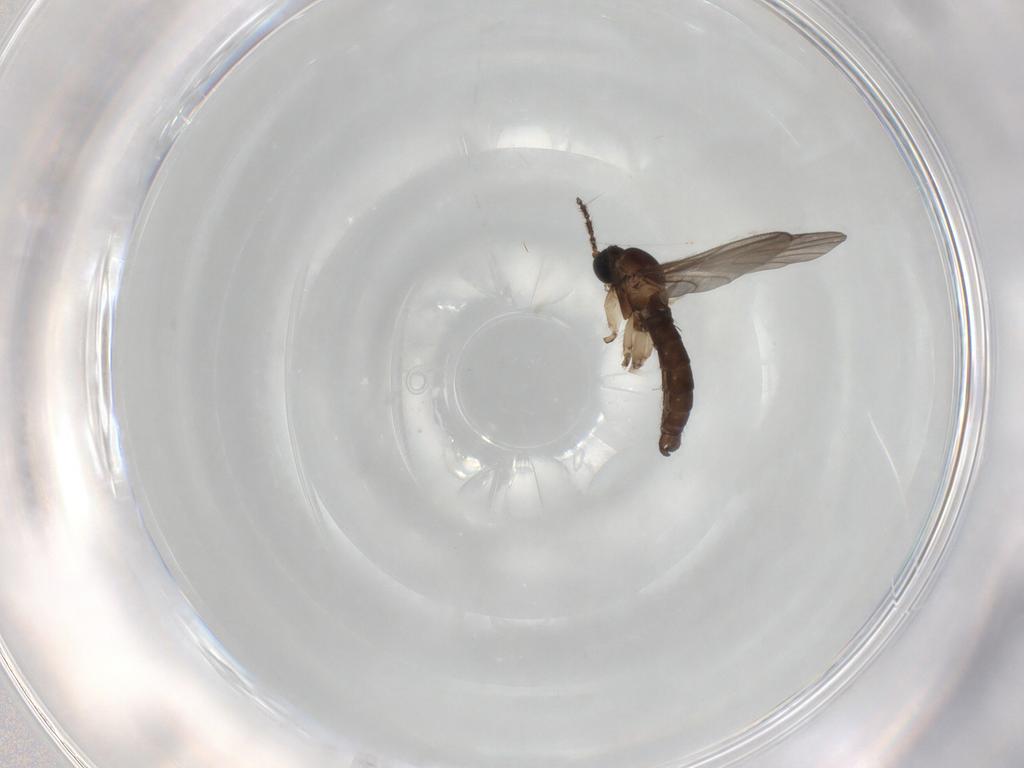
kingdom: Animalia
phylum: Arthropoda
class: Insecta
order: Diptera
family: Sciaridae
